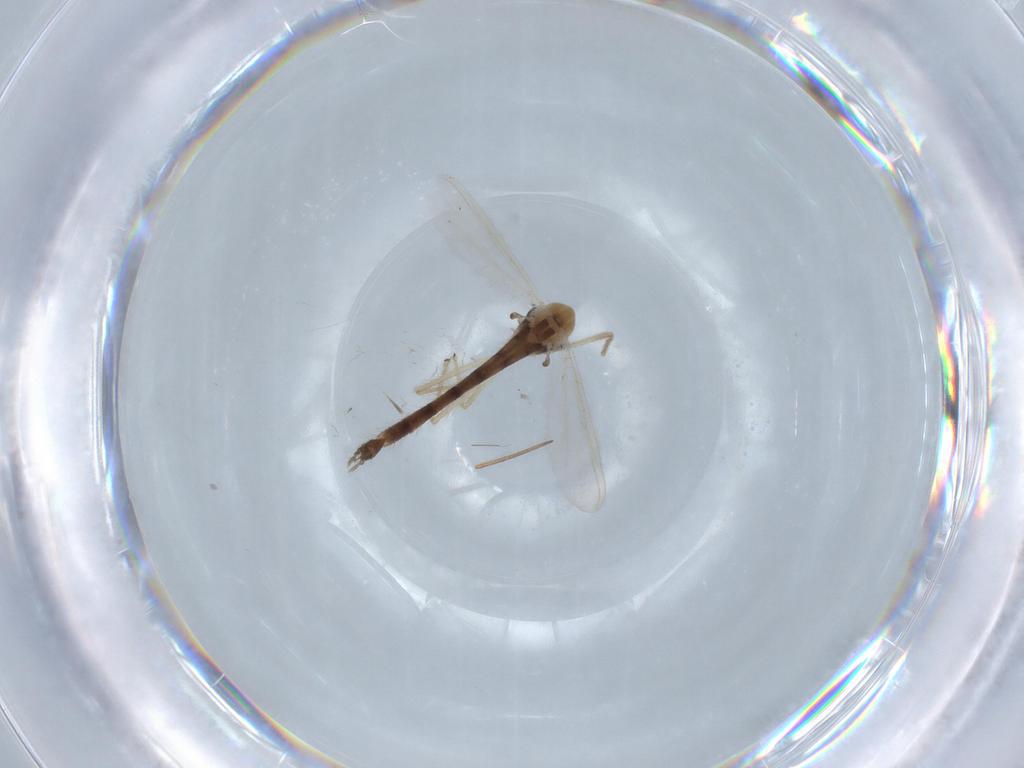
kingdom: Animalia
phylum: Arthropoda
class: Insecta
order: Diptera
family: Chironomidae
